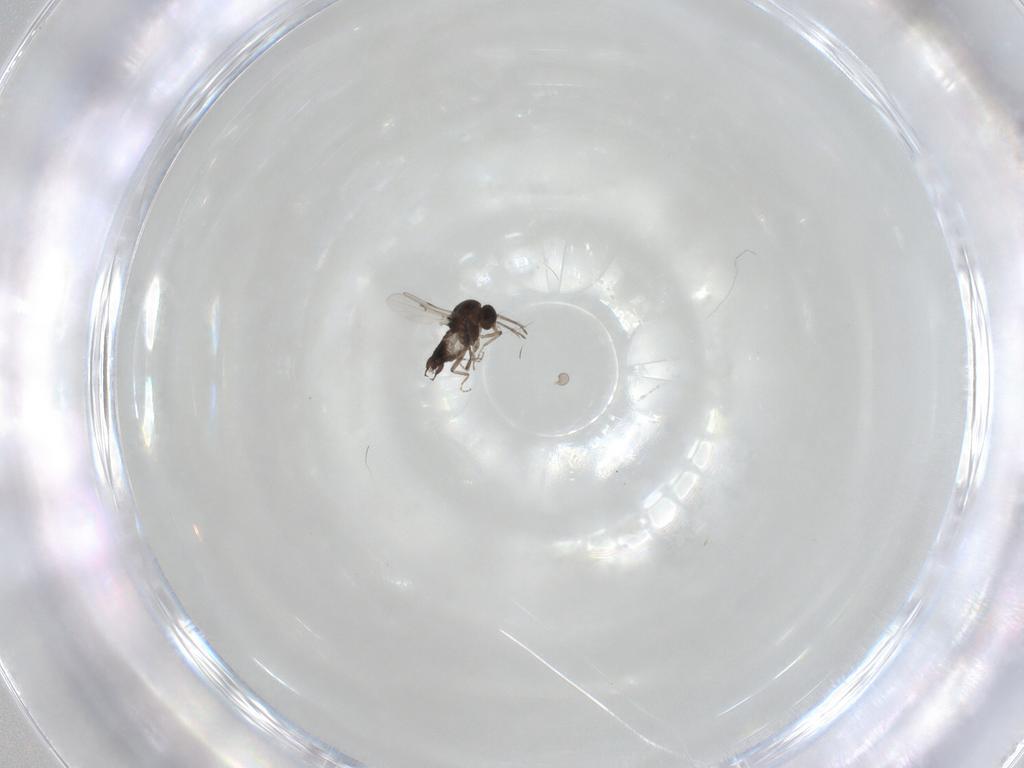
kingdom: Animalia
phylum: Arthropoda
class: Insecta
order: Diptera
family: Ceratopogonidae
